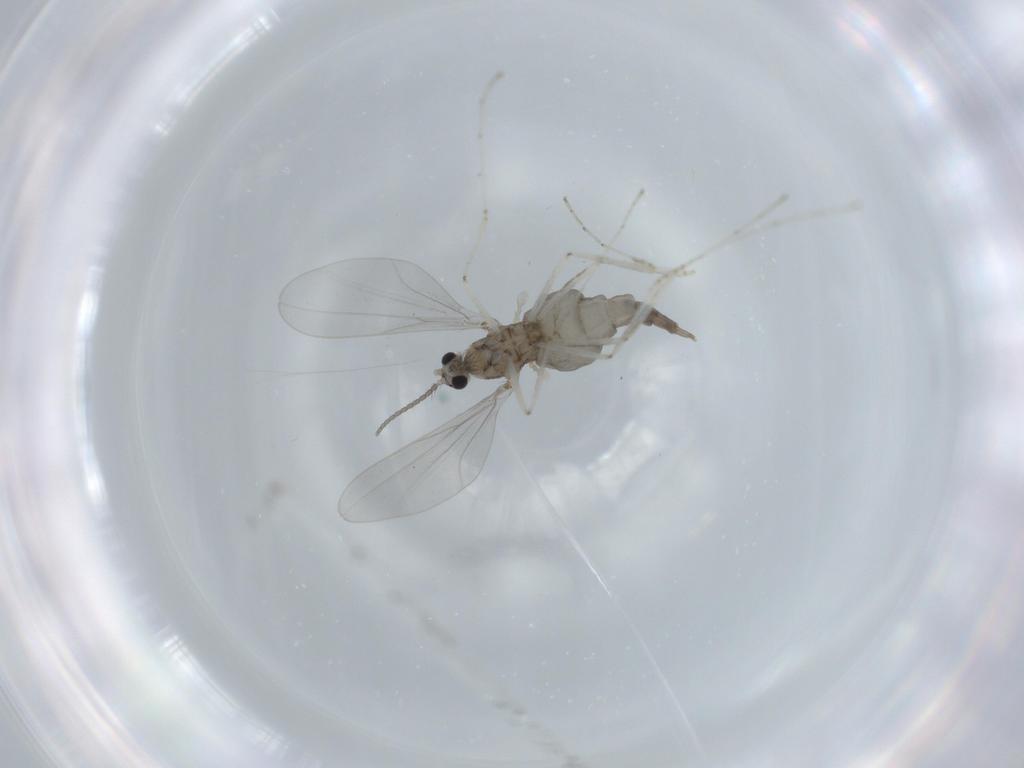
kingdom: Animalia
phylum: Arthropoda
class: Insecta
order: Diptera
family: Cecidomyiidae
